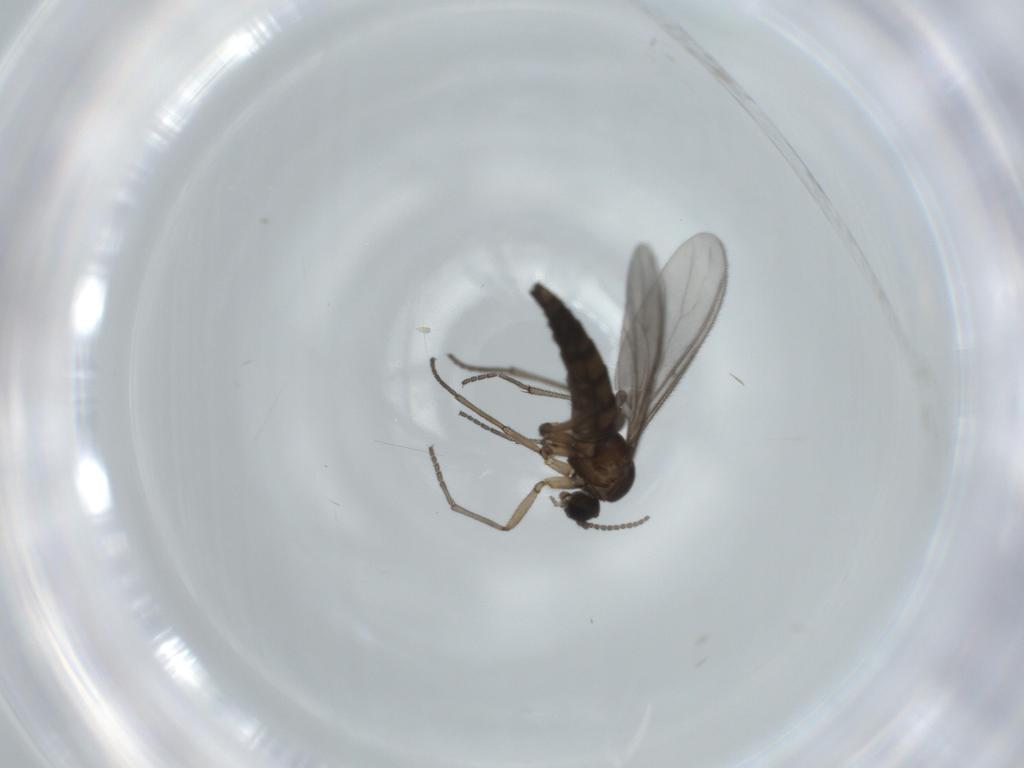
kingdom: Animalia
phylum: Arthropoda
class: Insecta
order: Diptera
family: Sciaridae
